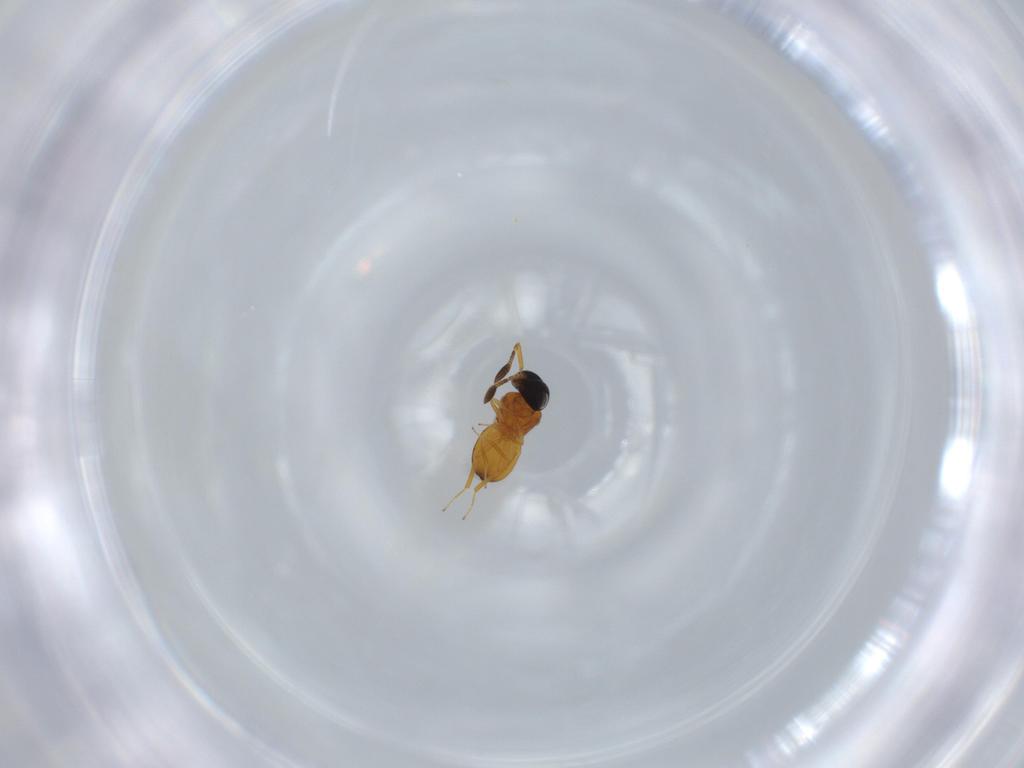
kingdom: Animalia
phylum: Arthropoda
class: Insecta
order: Hymenoptera
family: Scelionidae
